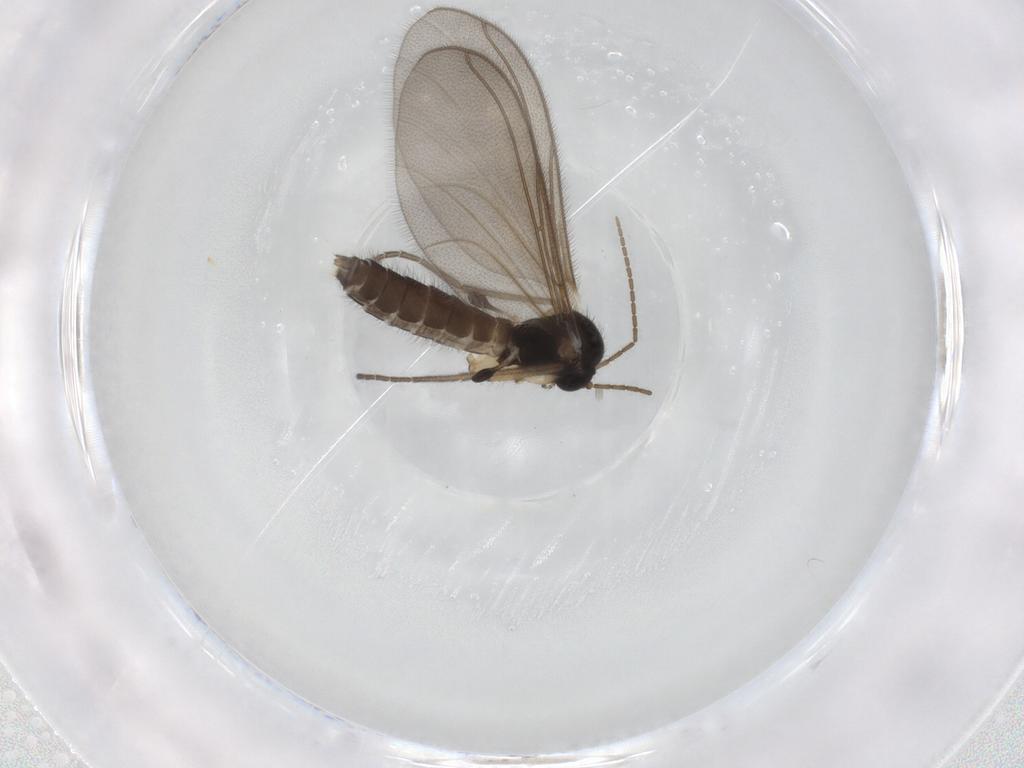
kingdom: Animalia
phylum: Arthropoda
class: Insecta
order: Diptera
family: Mycetophilidae
